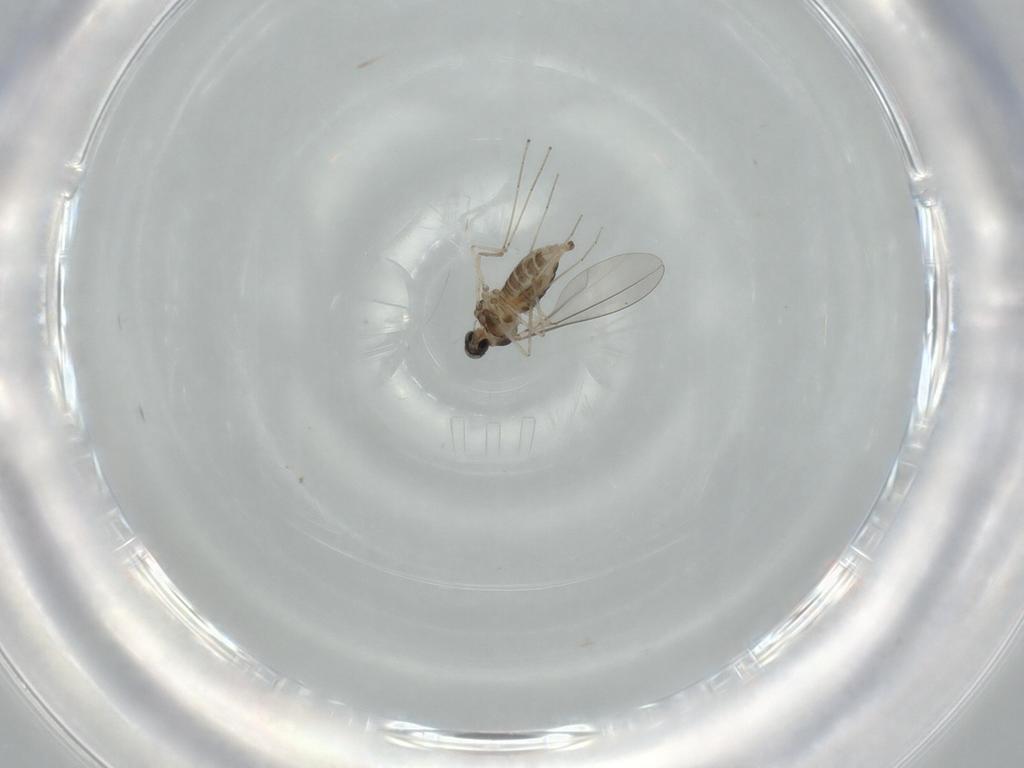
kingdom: Animalia
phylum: Arthropoda
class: Insecta
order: Diptera
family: Cecidomyiidae
